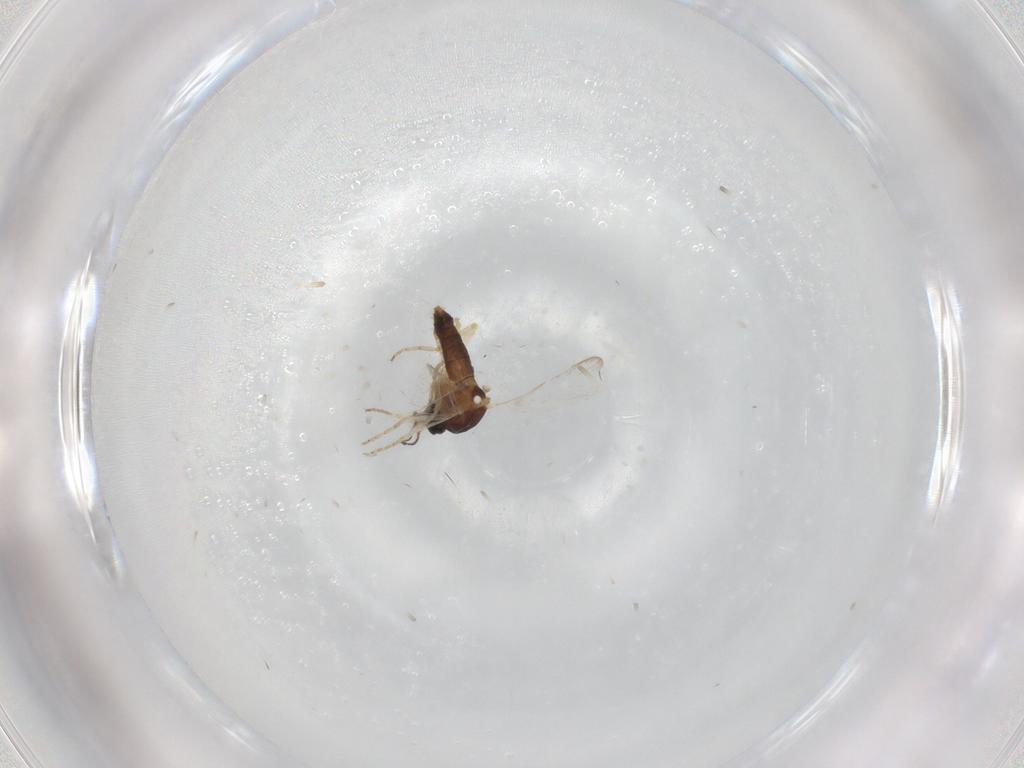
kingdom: Animalia
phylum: Arthropoda
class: Insecta
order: Diptera
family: Ceratopogonidae
